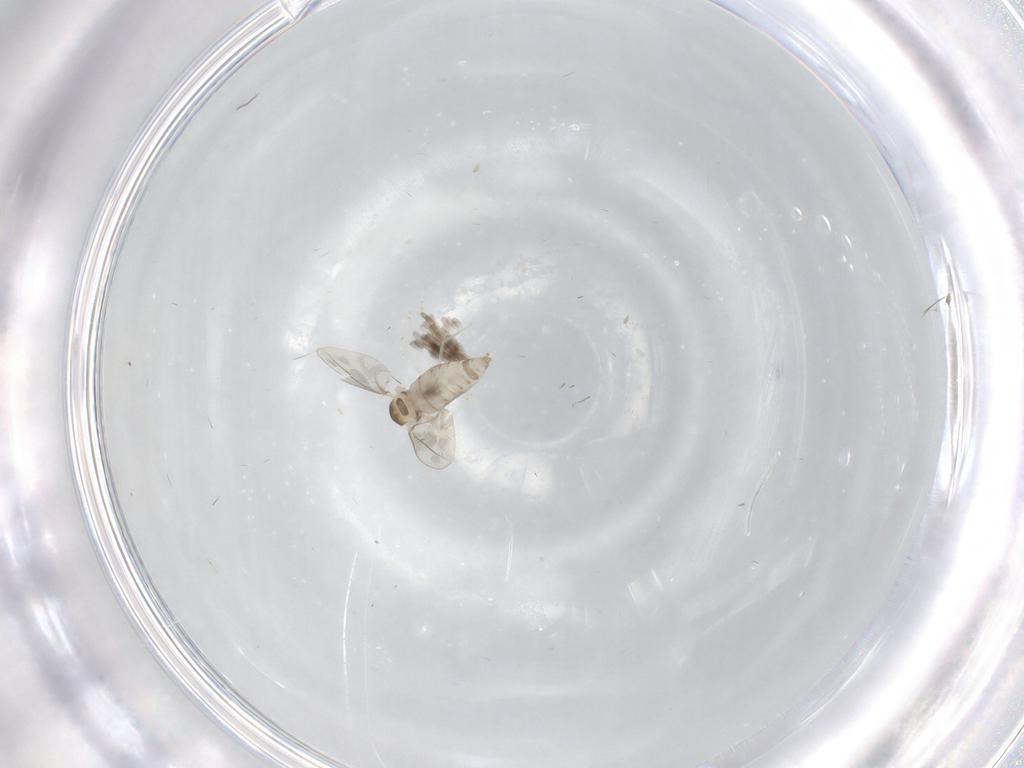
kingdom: Animalia
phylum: Arthropoda
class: Insecta
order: Diptera
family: Cecidomyiidae
